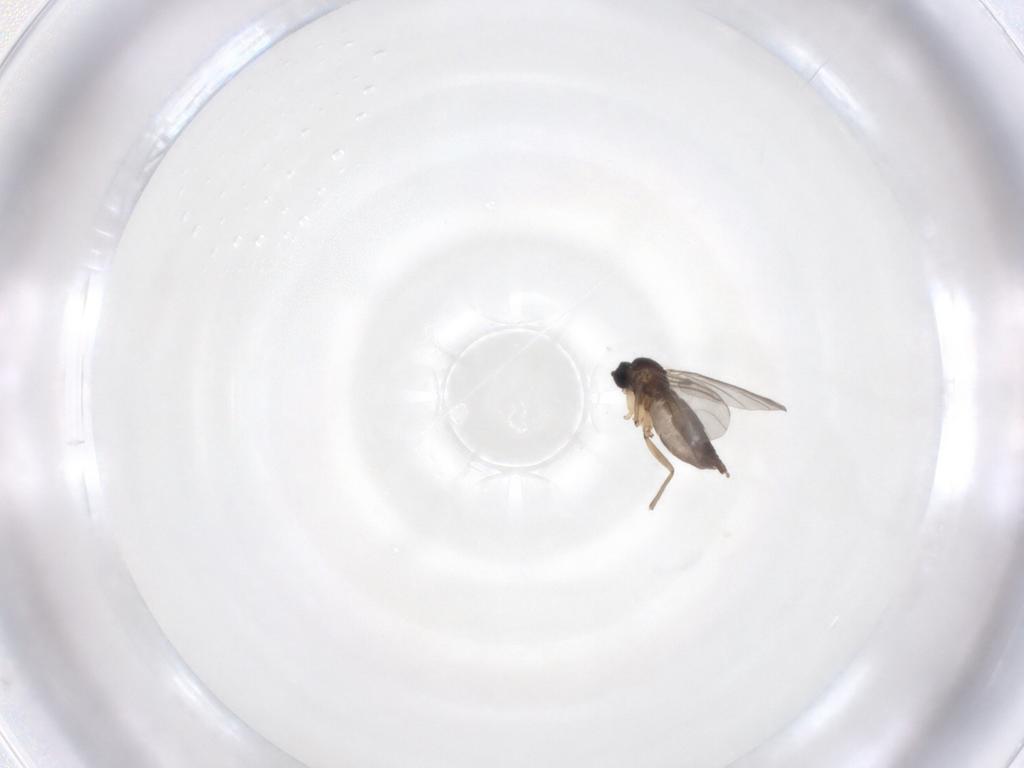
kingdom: Animalia
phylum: Arthropoda
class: Insecta
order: Diptera
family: Sciaridae
